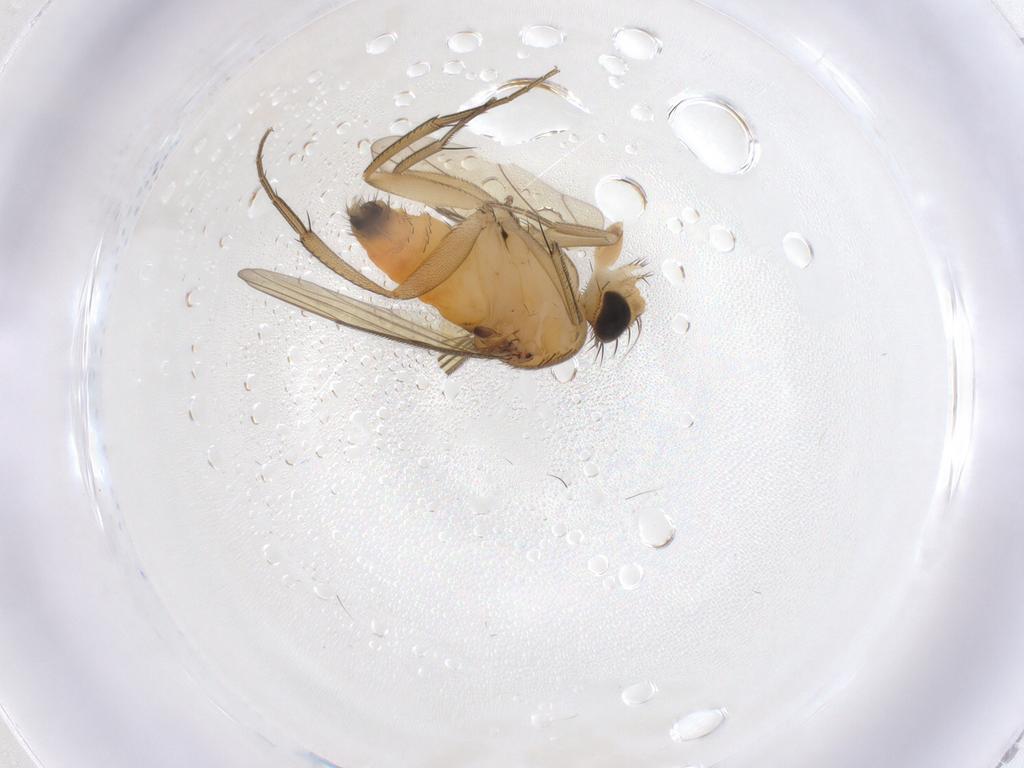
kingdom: Animalia
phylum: Arthropoda
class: Insecta
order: Diptera
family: Phoridae
